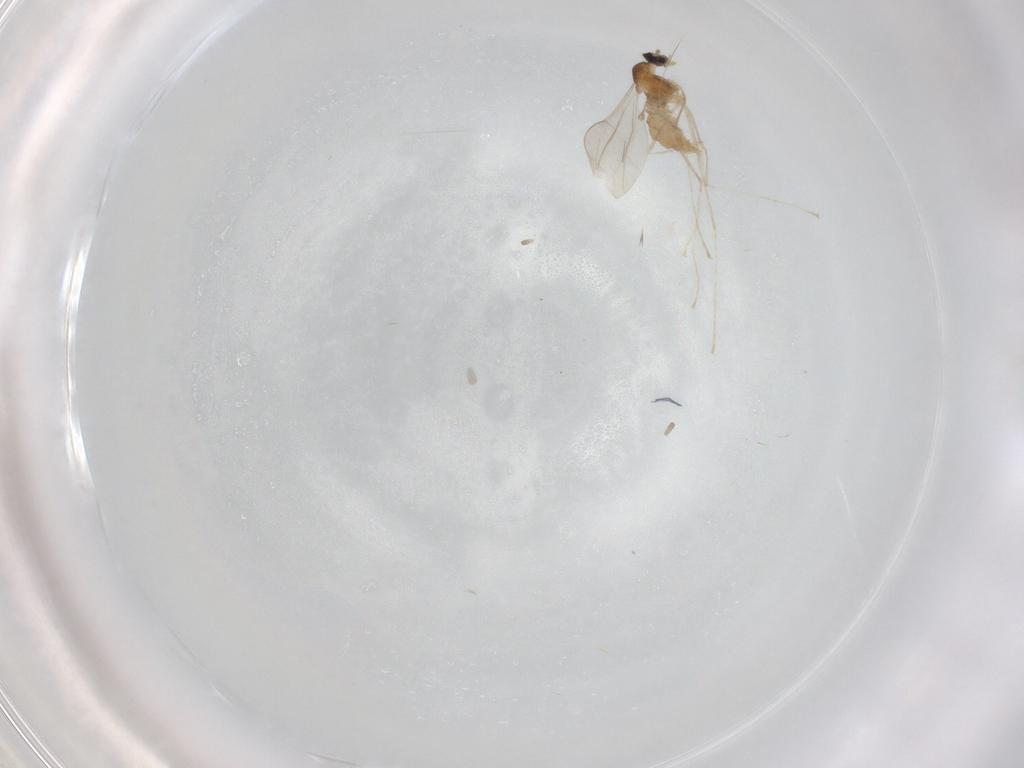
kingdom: Animalia
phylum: Arthropoda
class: Insecta
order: Diptera
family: Cecidomyiidae
